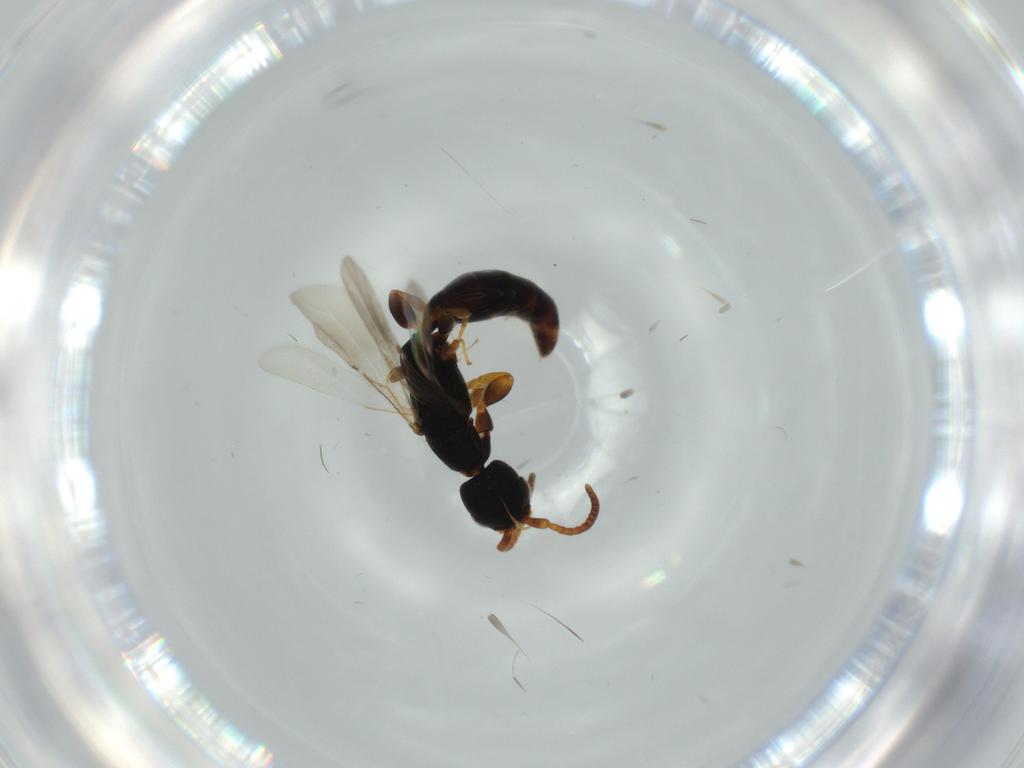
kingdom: Animalia
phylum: Arthropoda
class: Insecta
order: Hymenoptera
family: Bethylidae
